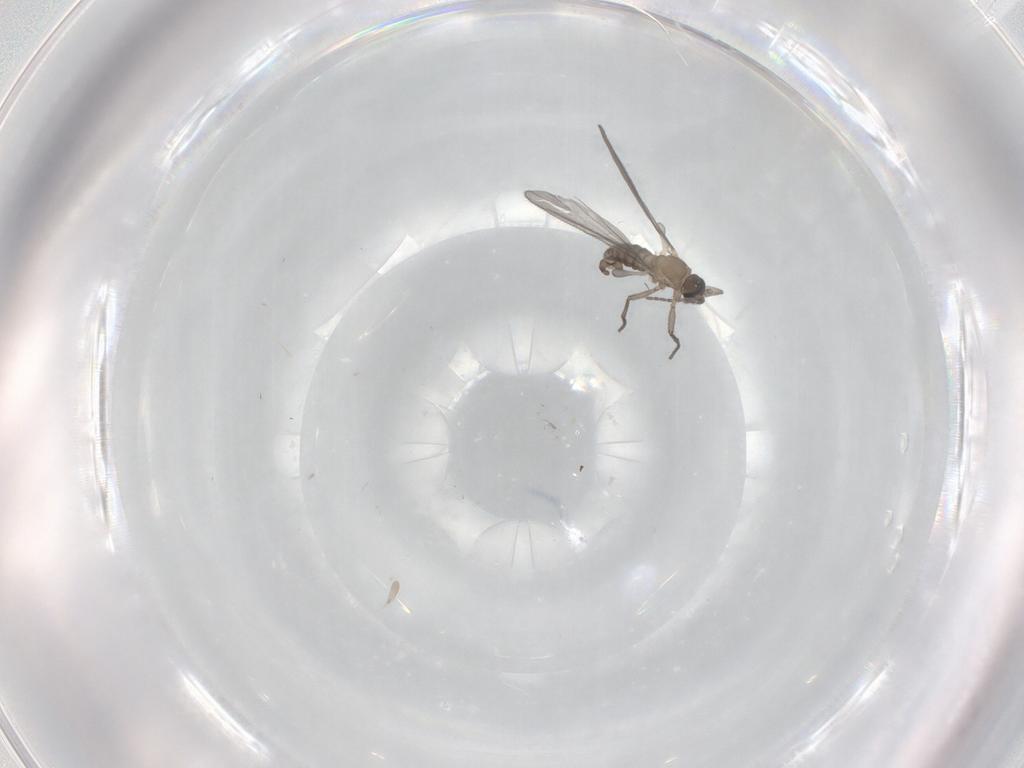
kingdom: Animalia
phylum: Arthropoda
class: Insecta
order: Diptera
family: Sciaridae
